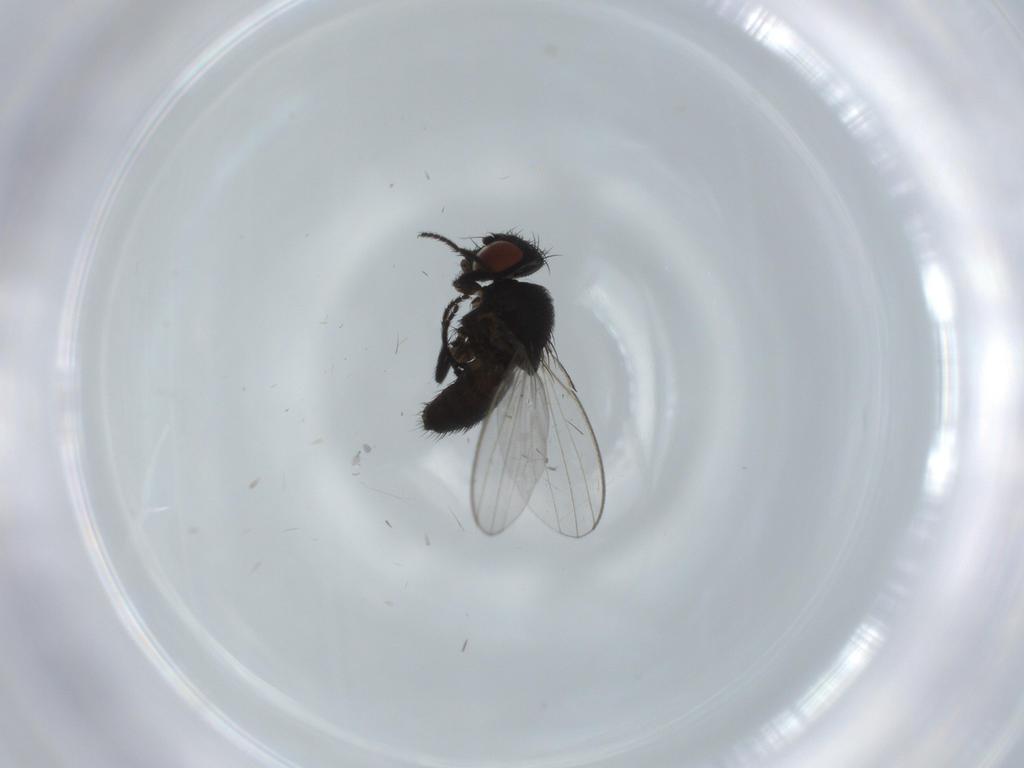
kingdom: Animalia
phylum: Arthropoda
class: Insecta
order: Diptera
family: Milichiidae
